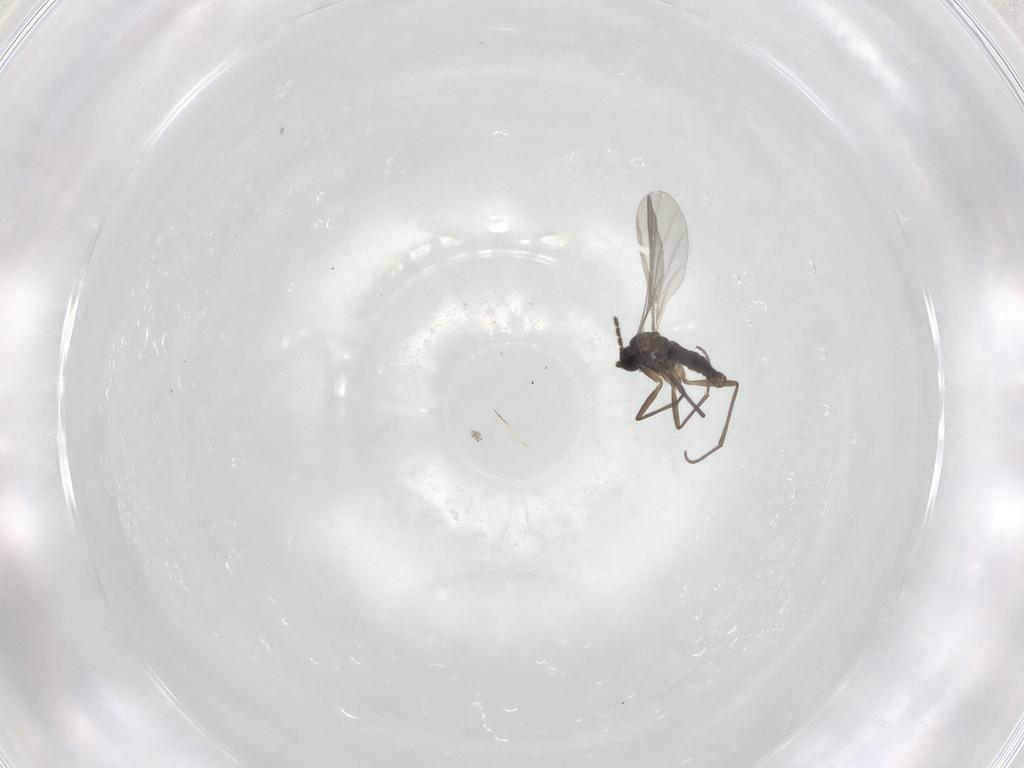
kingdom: Animalia
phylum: Arthropoda
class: Insecta
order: Diptera
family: Sciaridae
